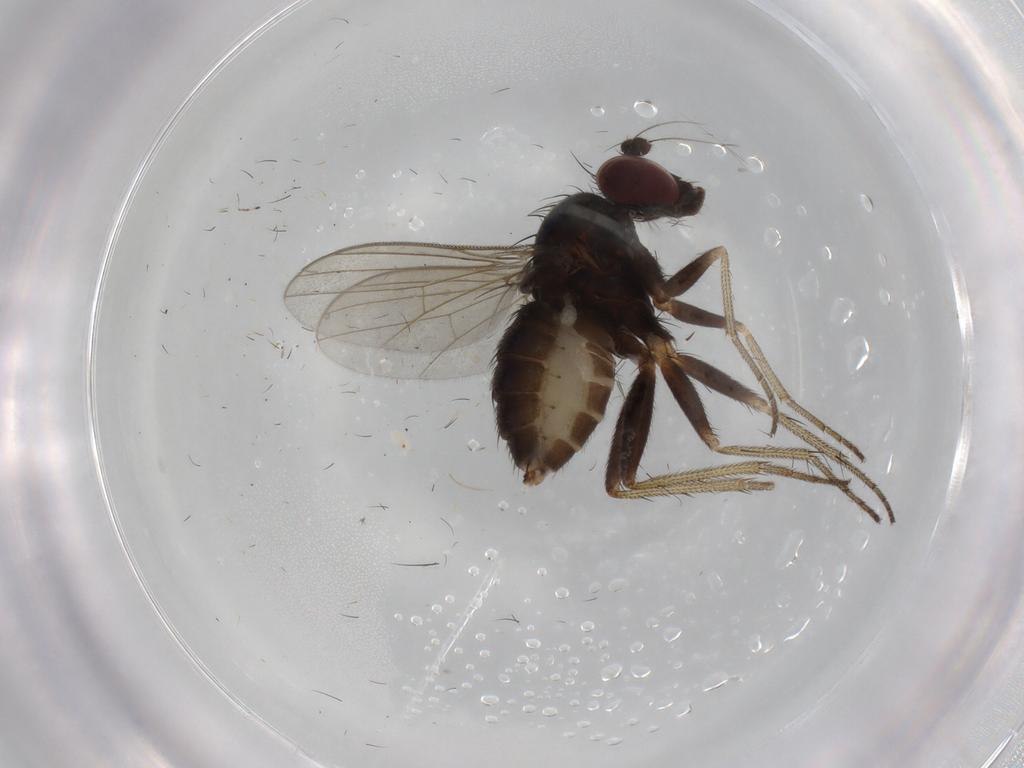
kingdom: Animalia
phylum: Arthropoda
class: Insecta
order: Diptera
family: Dolichopodidae
